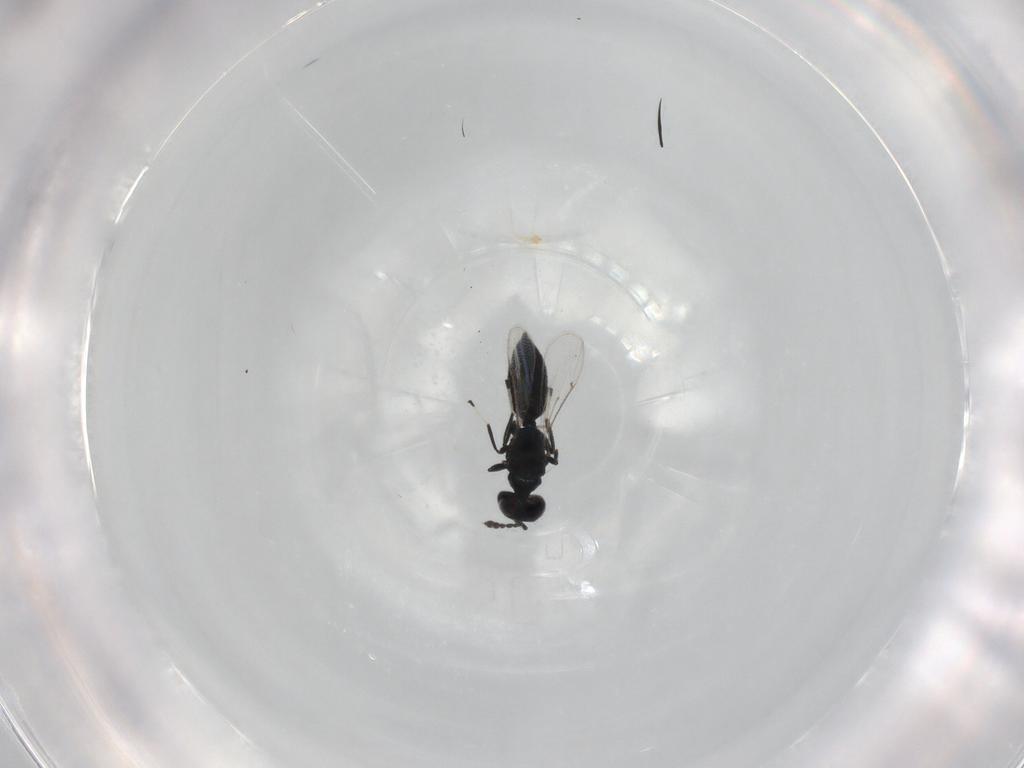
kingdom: Animalia
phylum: Arthropoda
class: Insecta
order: Hymenoptera
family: Eulophidae
